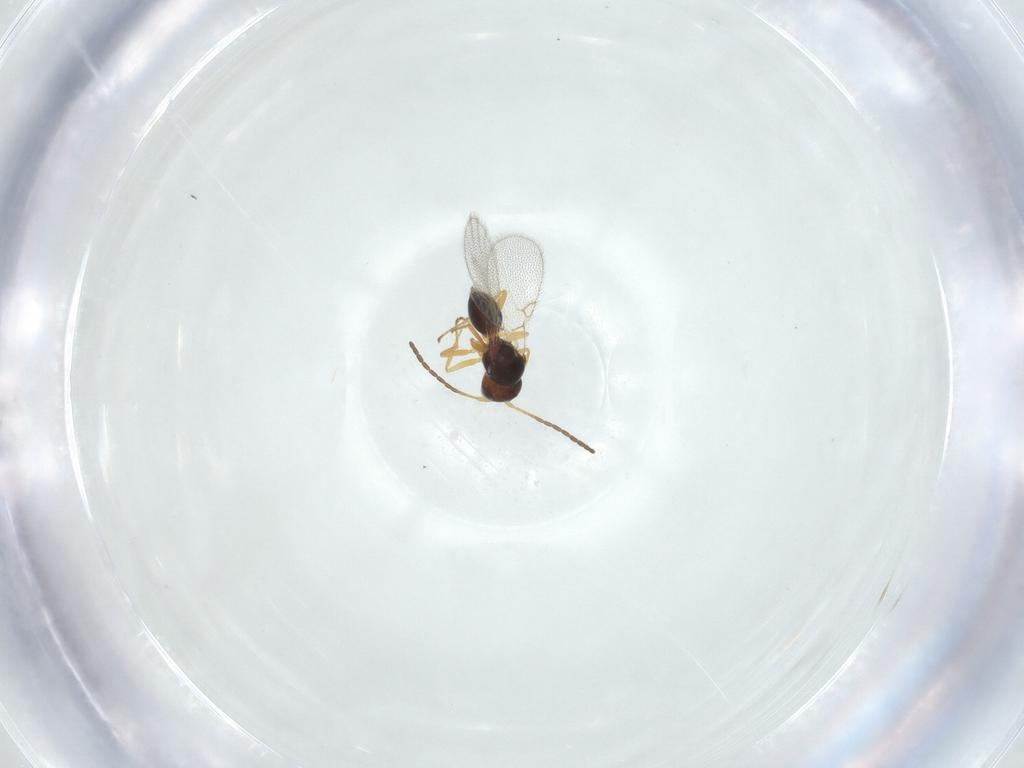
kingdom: Animalia
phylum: Arthropoda
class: Insecta
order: Hymenoptera
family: Figitidae
